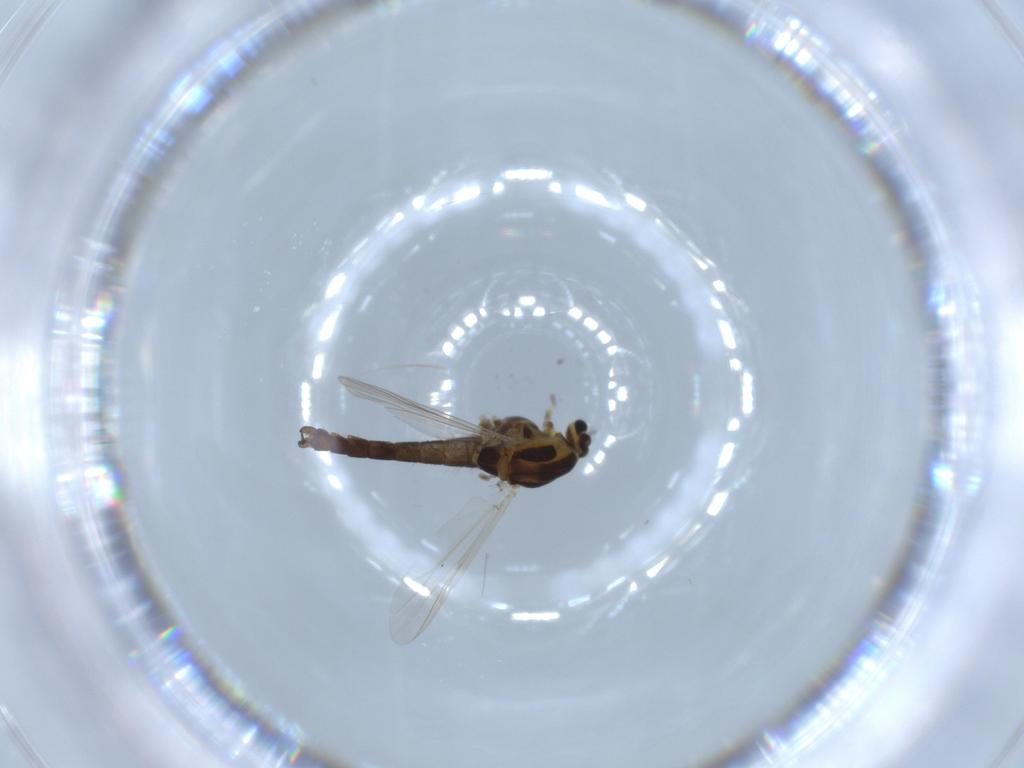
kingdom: Animalia
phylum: Arthropoda
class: Insecta
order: Diptera
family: Chironomidae
